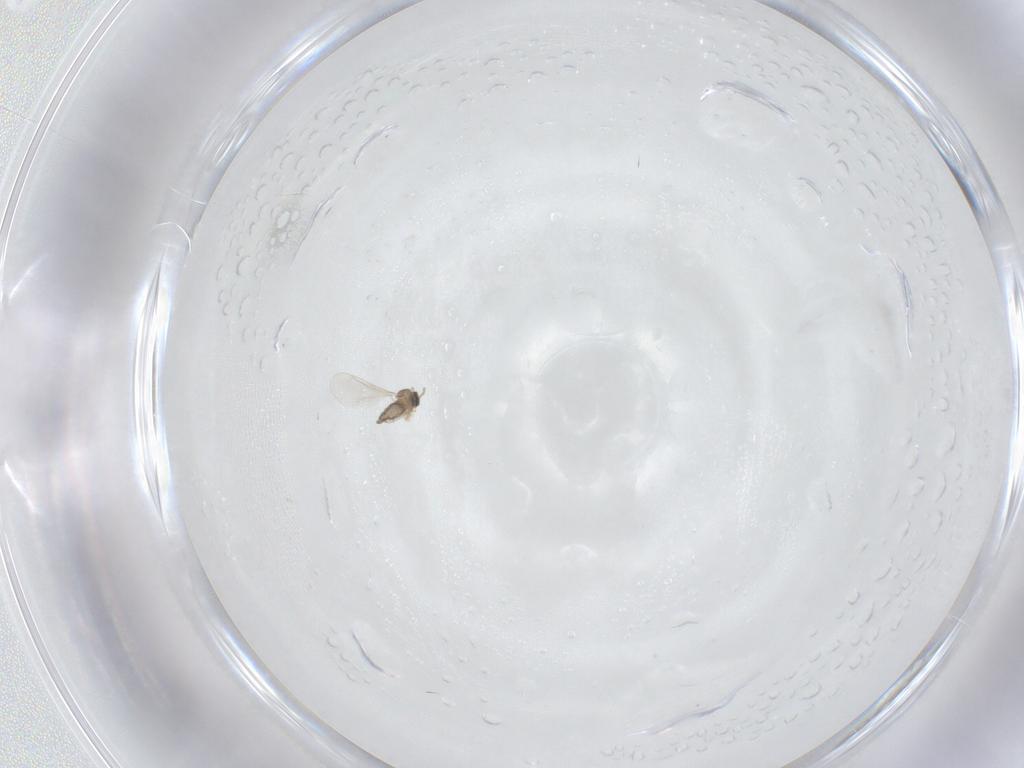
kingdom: Animalia
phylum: Arthropoda
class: Insecta
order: Diptera
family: Cecidomyiidae
